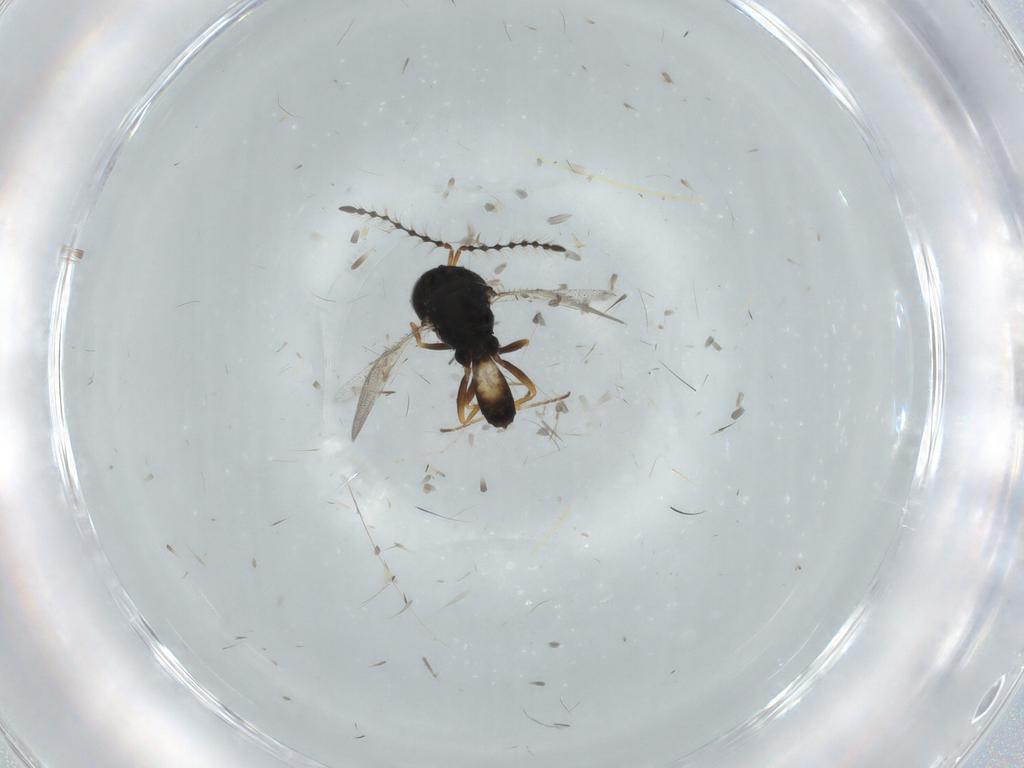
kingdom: Animalia
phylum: Arthropoda
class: Insecta
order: Hymenoptera
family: Pteromalidae
